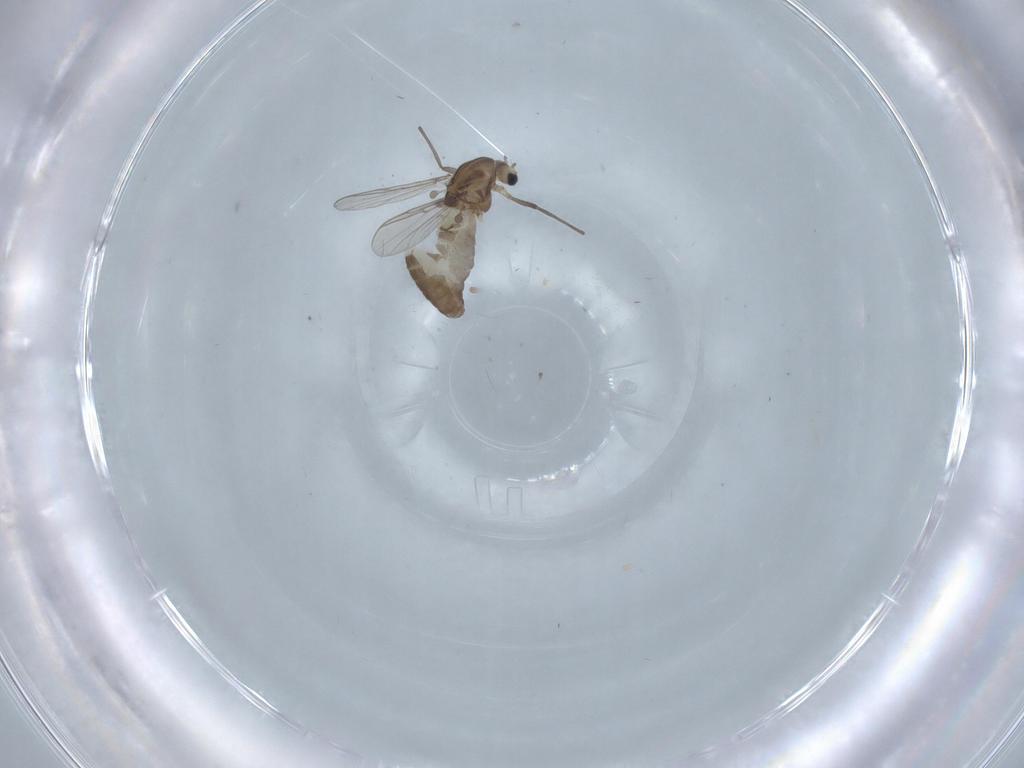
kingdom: Animalia
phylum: Arthropoda
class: Insecta
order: Diptera
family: Chironomidae
